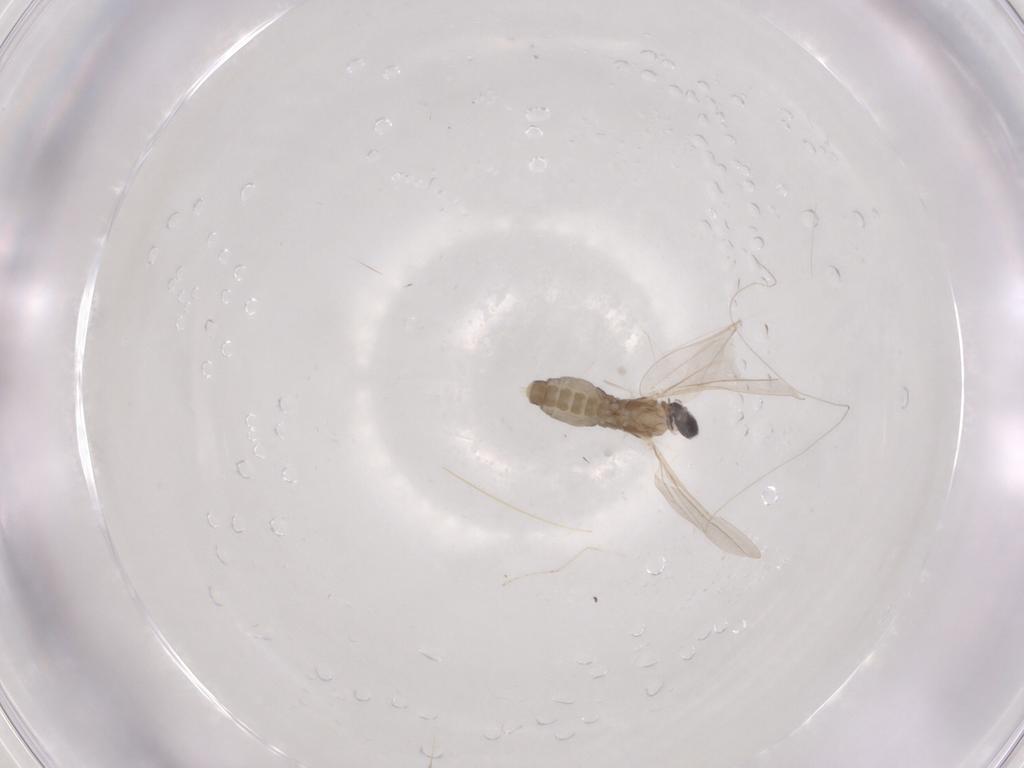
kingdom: Animalia
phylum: Arthropoda
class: Insecta
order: Diptera
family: Cecidomyiidae
